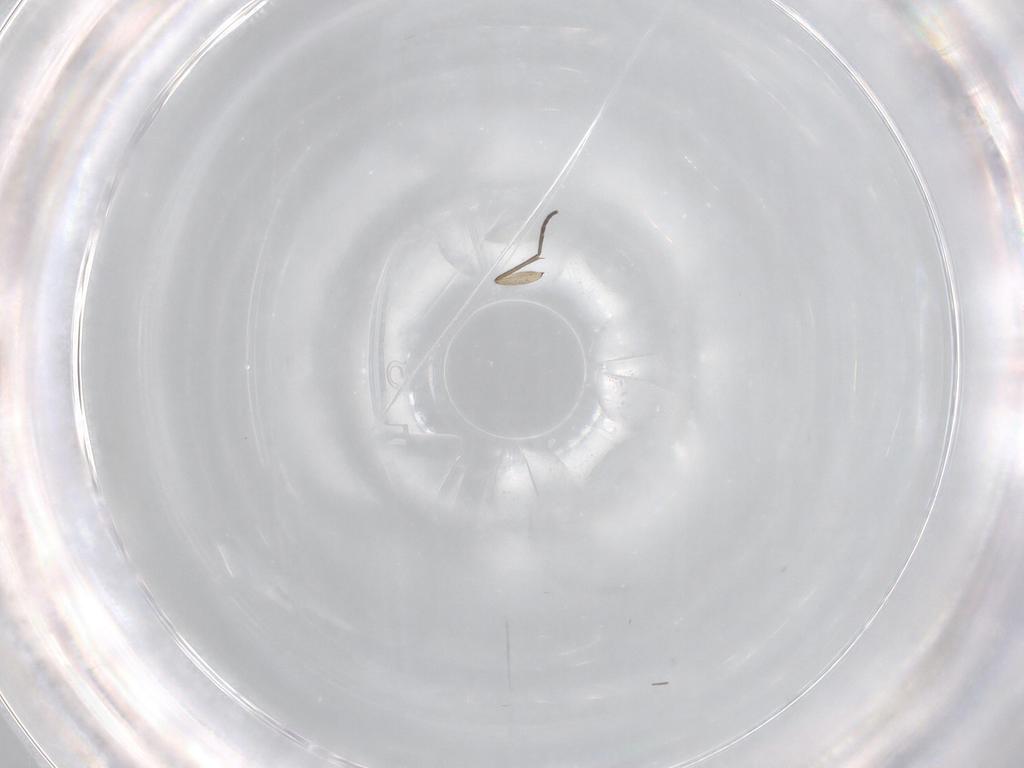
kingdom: Animalia
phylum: Arthropoda
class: Insecta
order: Diptera
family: Sciaridae
